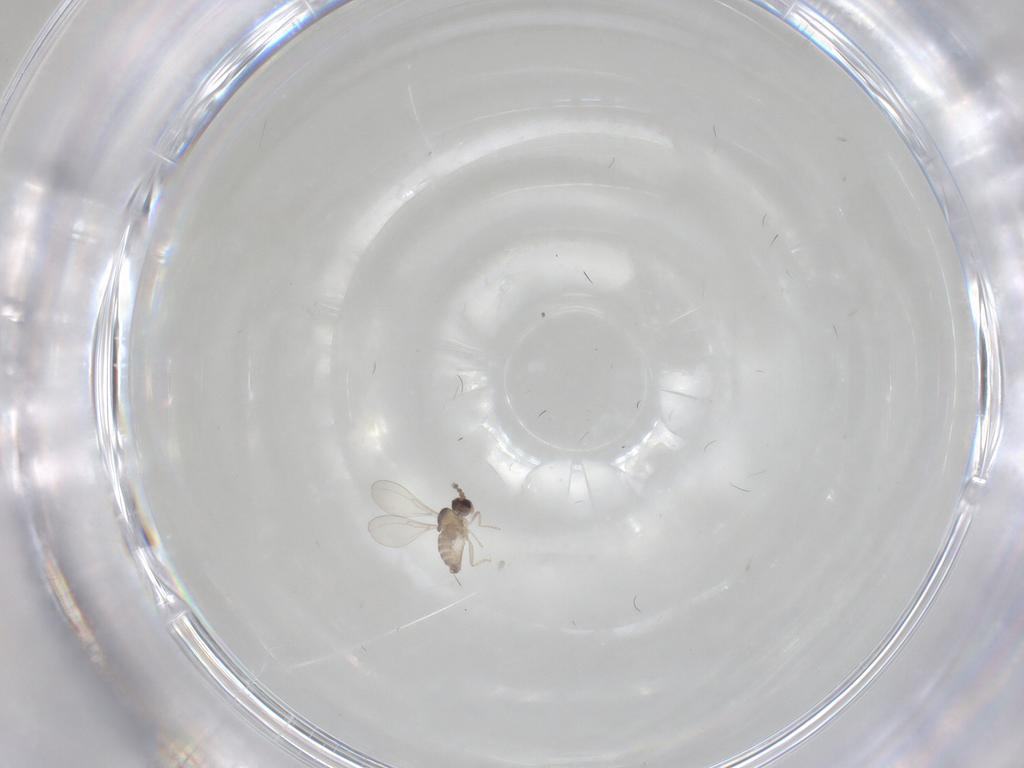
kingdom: Animalia
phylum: Arthropoda
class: Insecta
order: Diptera
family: Cecidomyiidae
